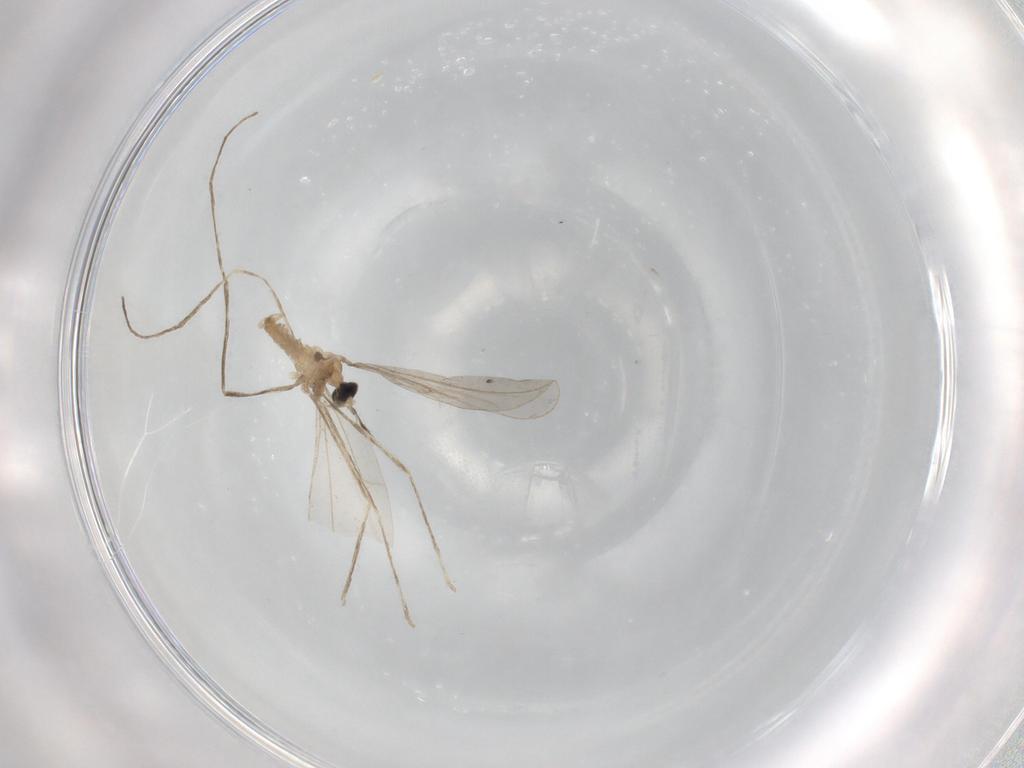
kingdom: Animalia
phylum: Arthropoda
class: Insecta
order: Diptera
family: Cecidomyiidae
